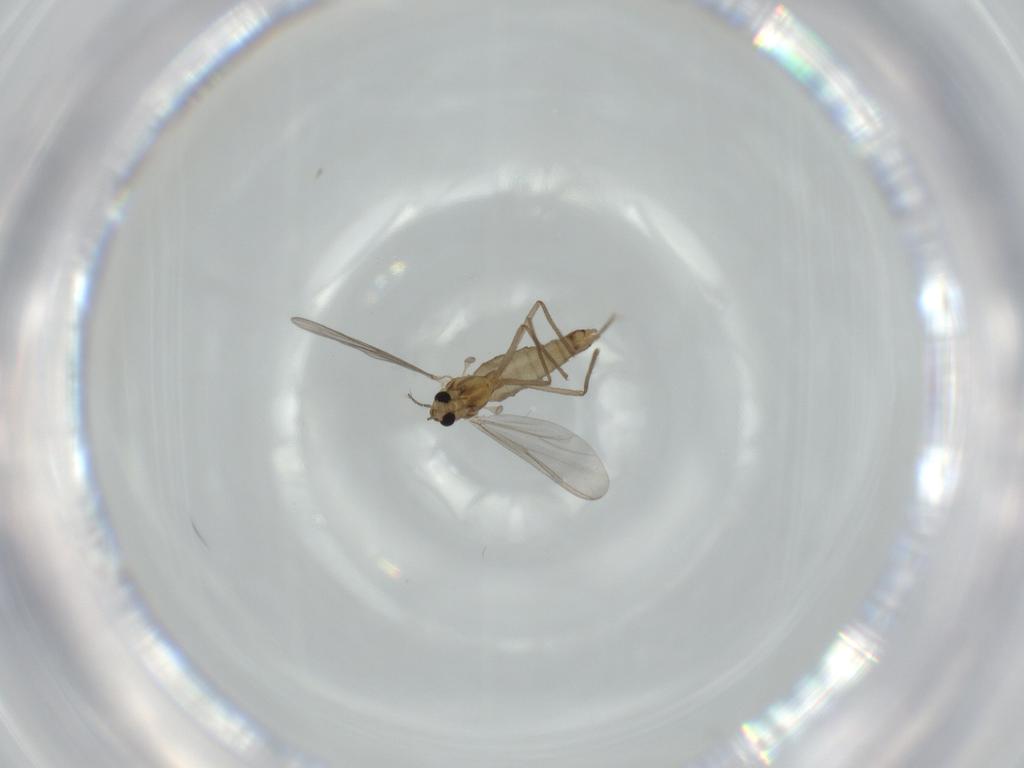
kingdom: Animalia
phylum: Arthropoda
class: Insecta
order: Diptera
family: Chironomidae
